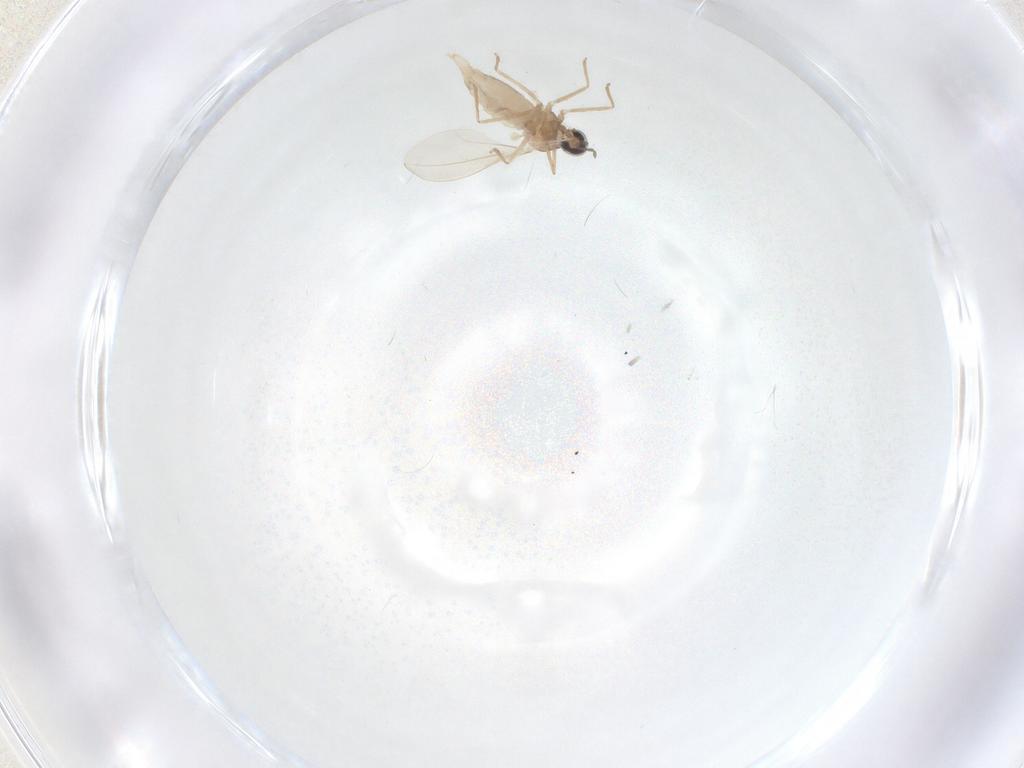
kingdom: Animalia
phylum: Arthropoda
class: Insecta
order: Diptera
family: Cecidomyiidae
